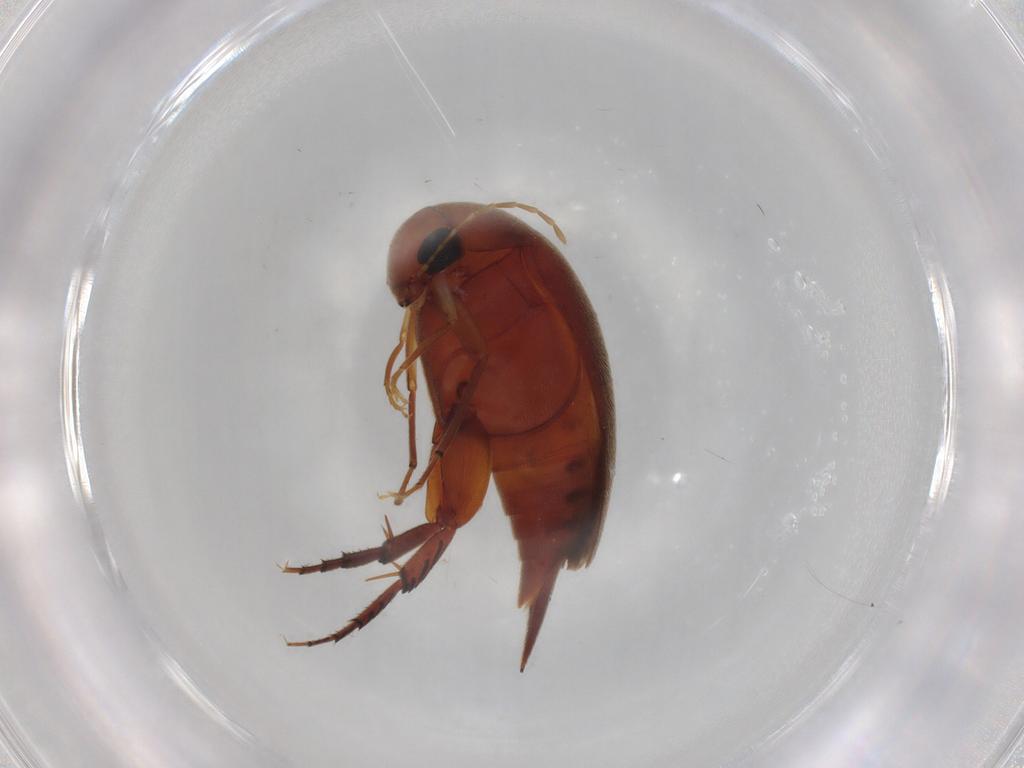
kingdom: Animalia
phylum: Arthropoda
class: Insecta
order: Coleoptera
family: Mordellidae
